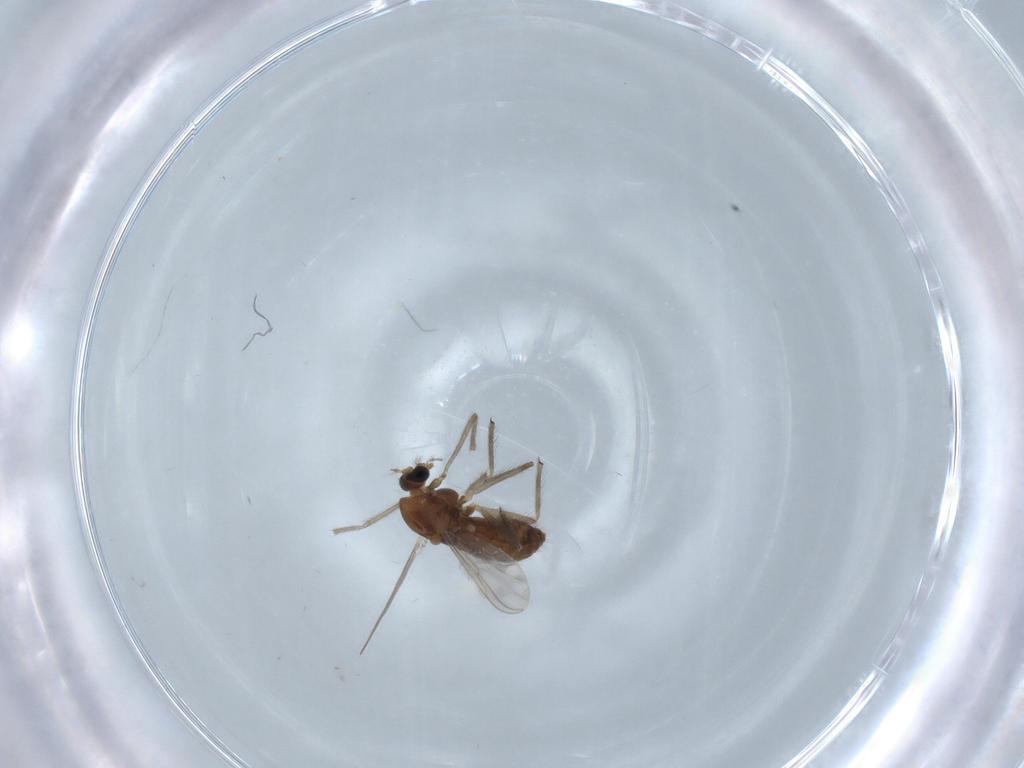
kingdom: Animalia
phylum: Arthropoda
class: Insecta
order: Diptera
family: Chironomidae
